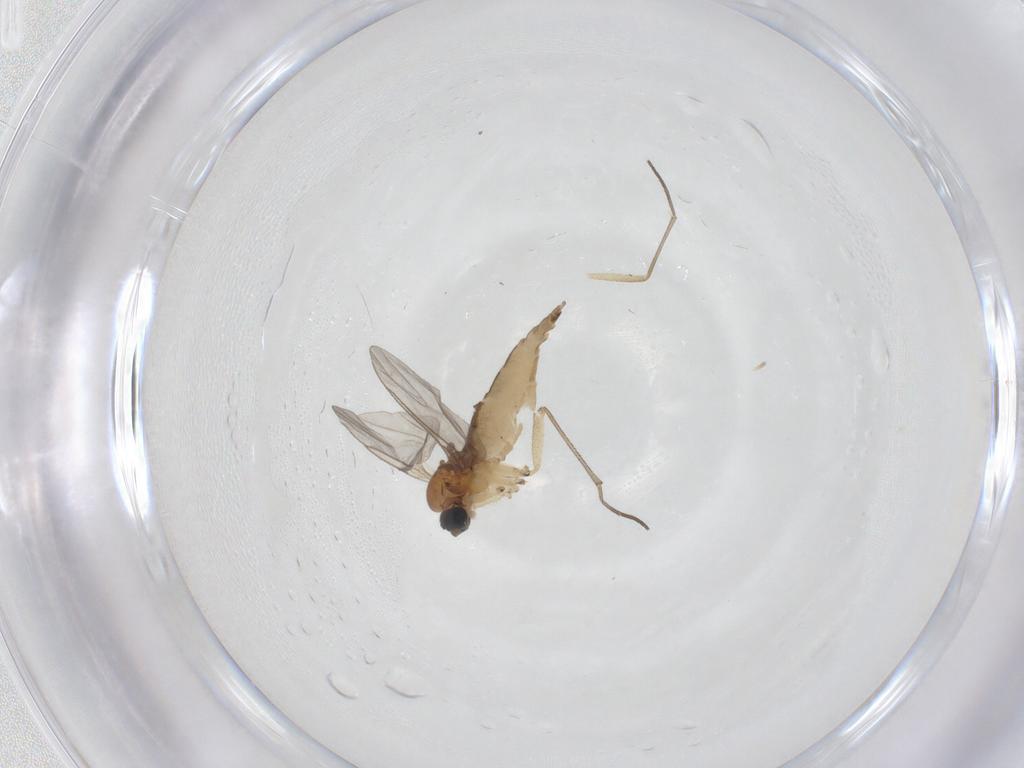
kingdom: Animalia
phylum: Arthropoda
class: Insecta
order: Diptera
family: Sciaridae
